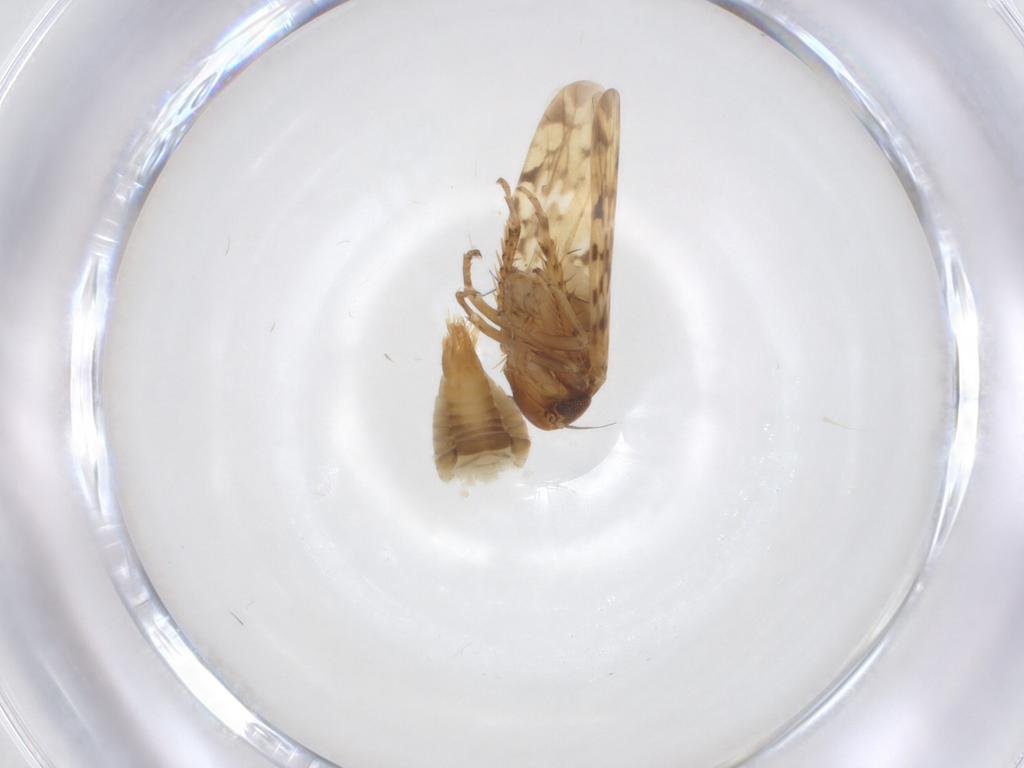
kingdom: Animalia
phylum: Arthropoda
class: Insecta
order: Hemiptera
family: Cicadellidae
